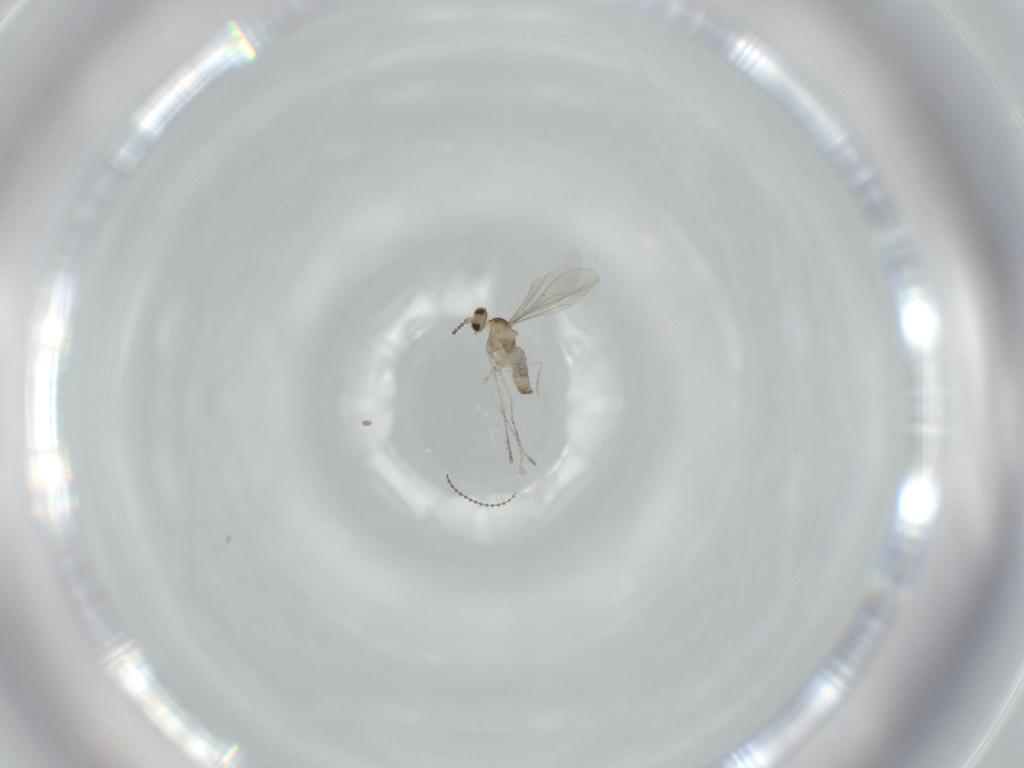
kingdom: Animalia
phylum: Arthropoda
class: Insecta
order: Diptera
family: Cecidomyiidae
